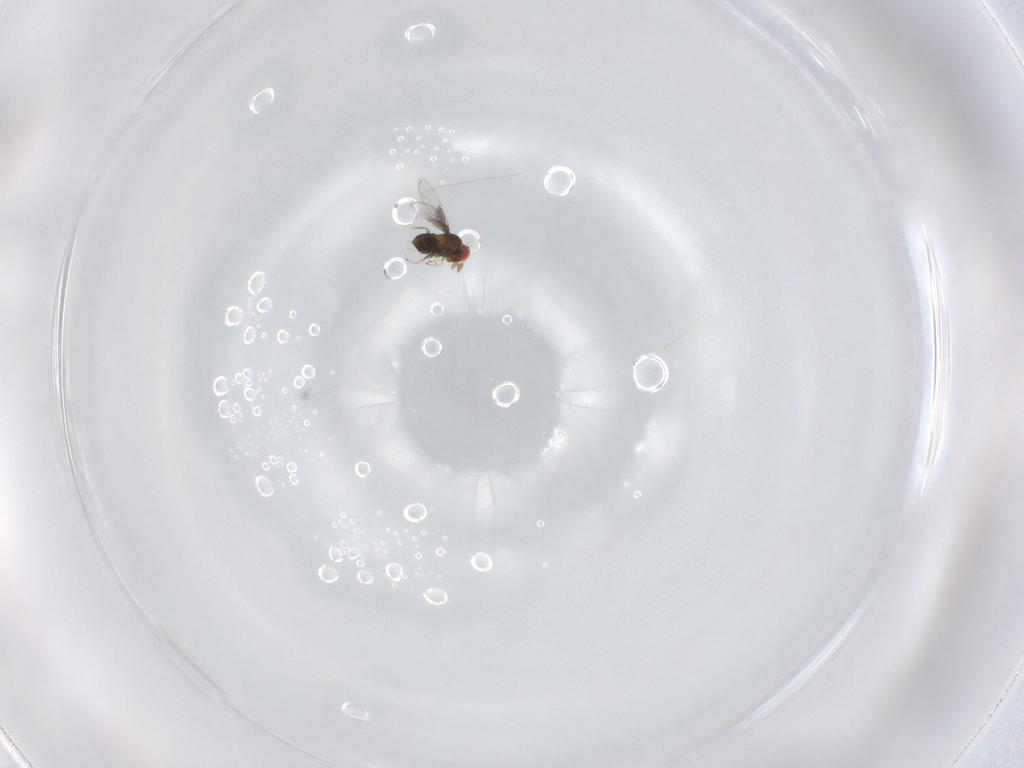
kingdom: Animalia
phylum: Arthropoda
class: Insecta
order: Hymenoptera
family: Trichogrammatidae
